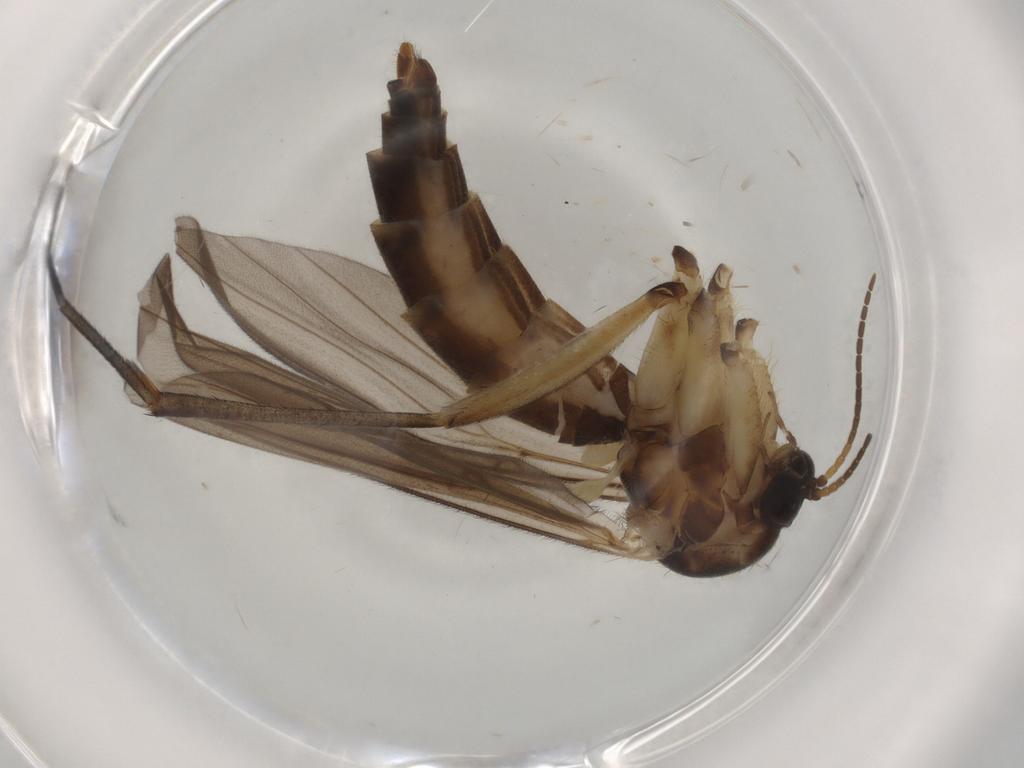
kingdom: Animalia
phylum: Arthropoda
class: Insecta
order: Diptera
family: Mycetophilidae
